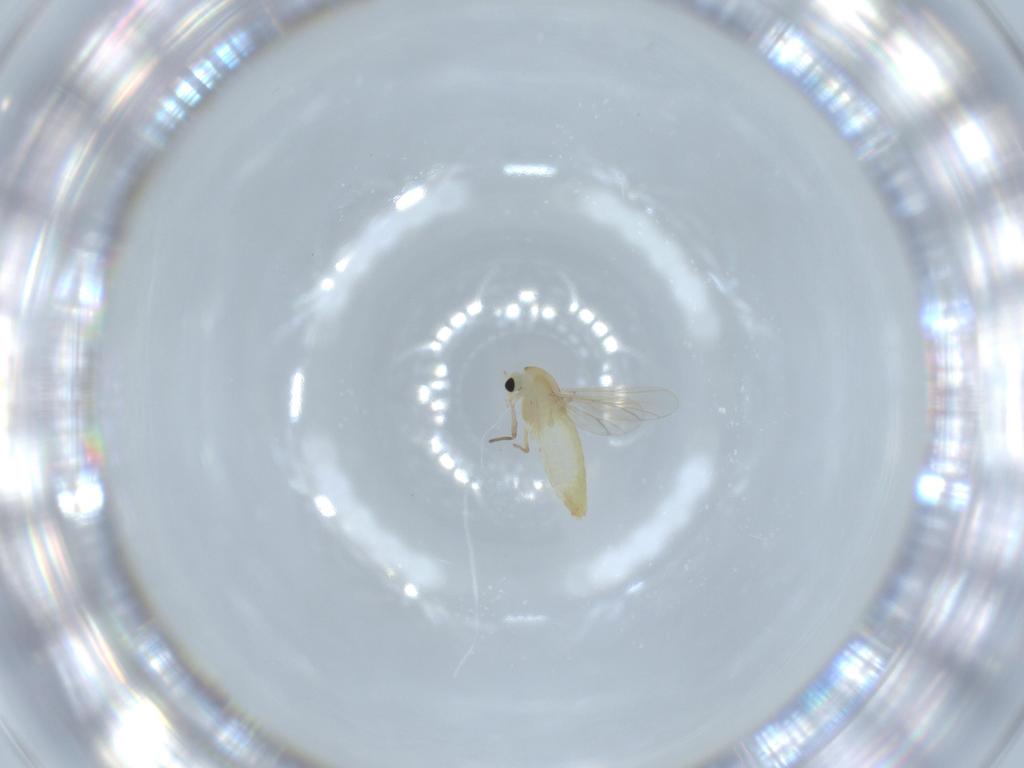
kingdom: Animalia
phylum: Arthropoda
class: Insecta
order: Diptera
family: Chironomidae
